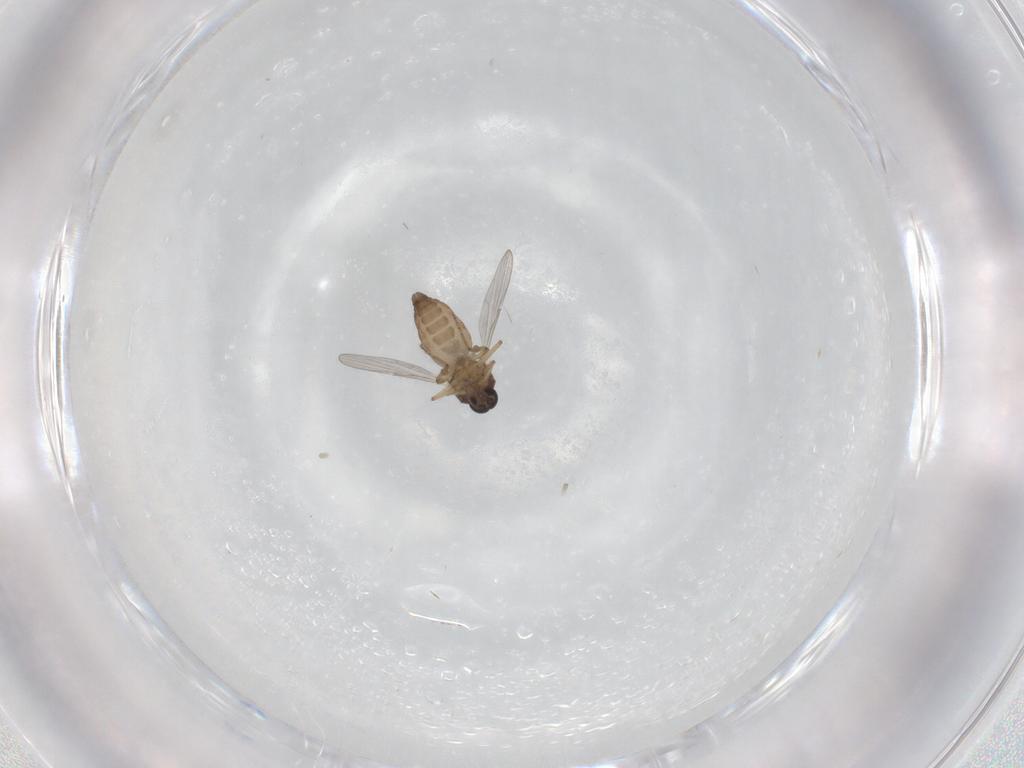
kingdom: Animalia
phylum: Arthropoda
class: Insecta
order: Diptera
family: Ceratopogonidae
